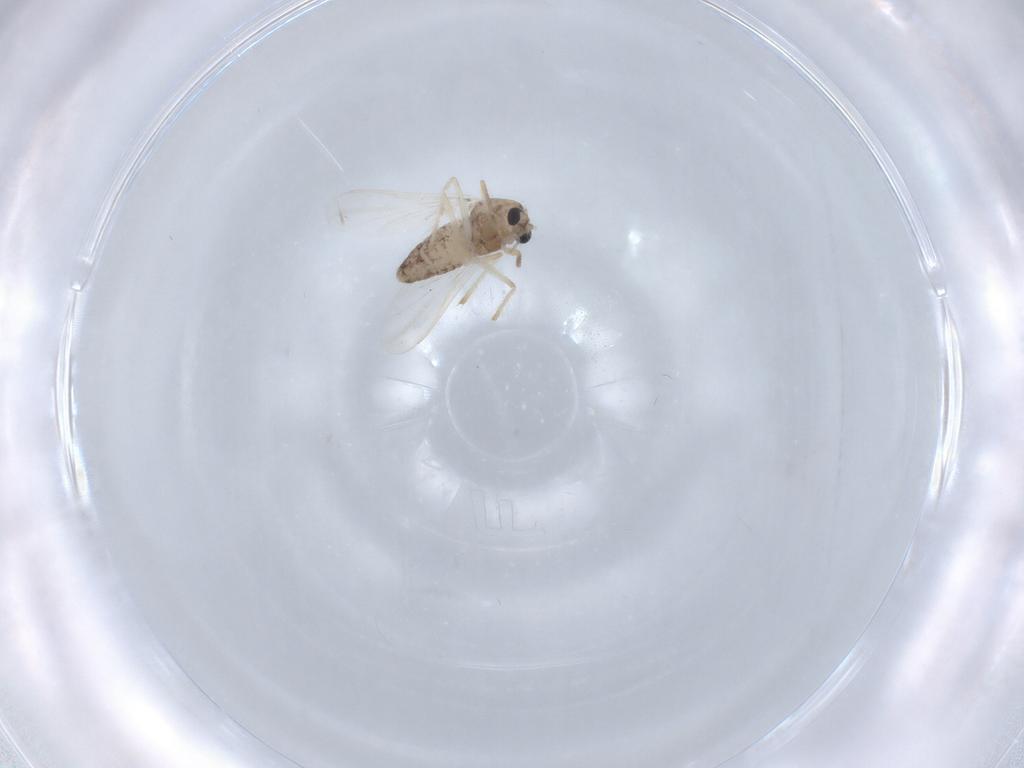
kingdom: Animalia
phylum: Arthropoda
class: Insecta
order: Diptera
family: Chironomidae
